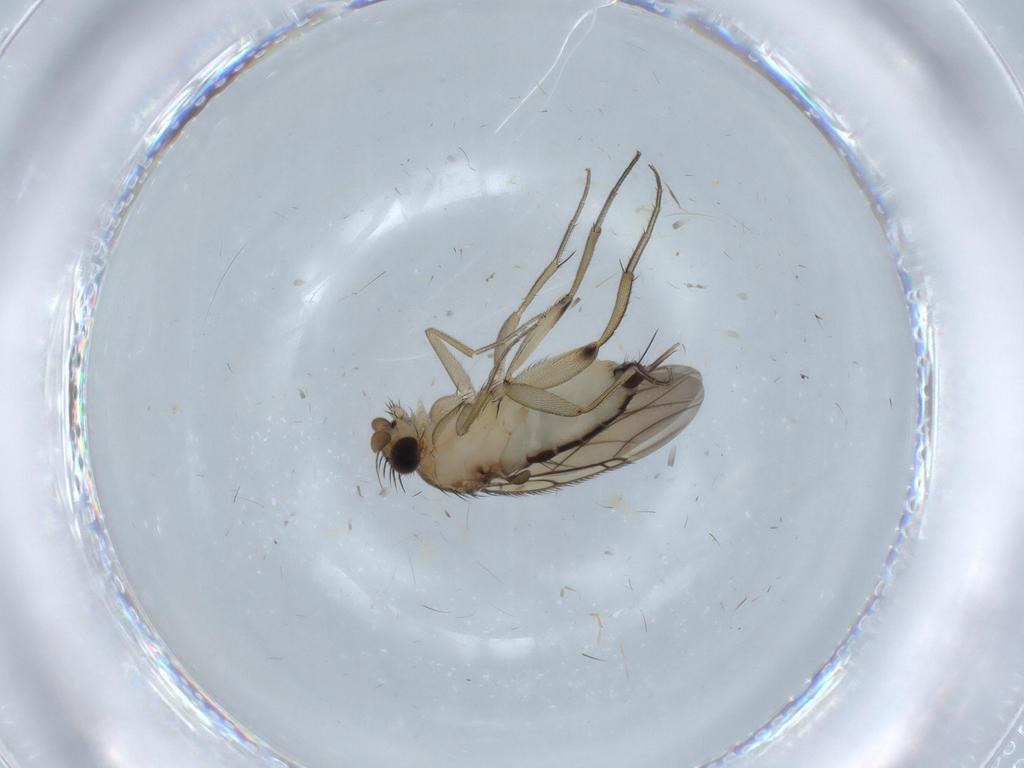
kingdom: Animalia
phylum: Arthropoda
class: Insecta
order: Diptera
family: Phoridae
